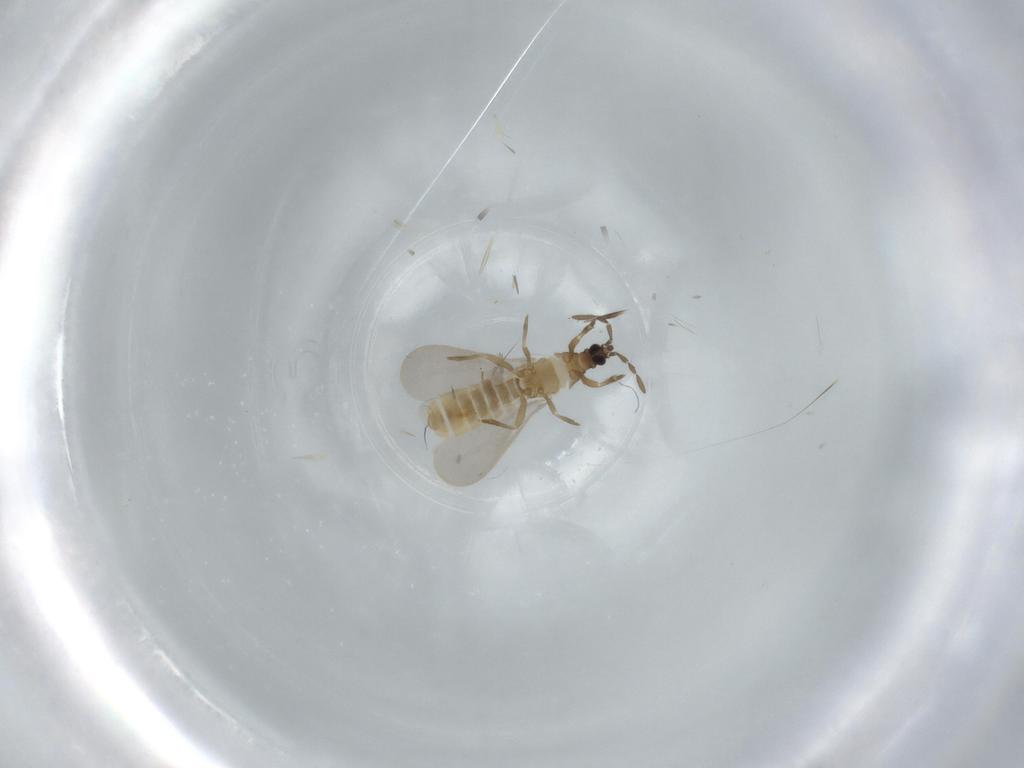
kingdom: Animalia
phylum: Arthropoda
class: Insecta
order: Hemiptera
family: Enicocephalidae
